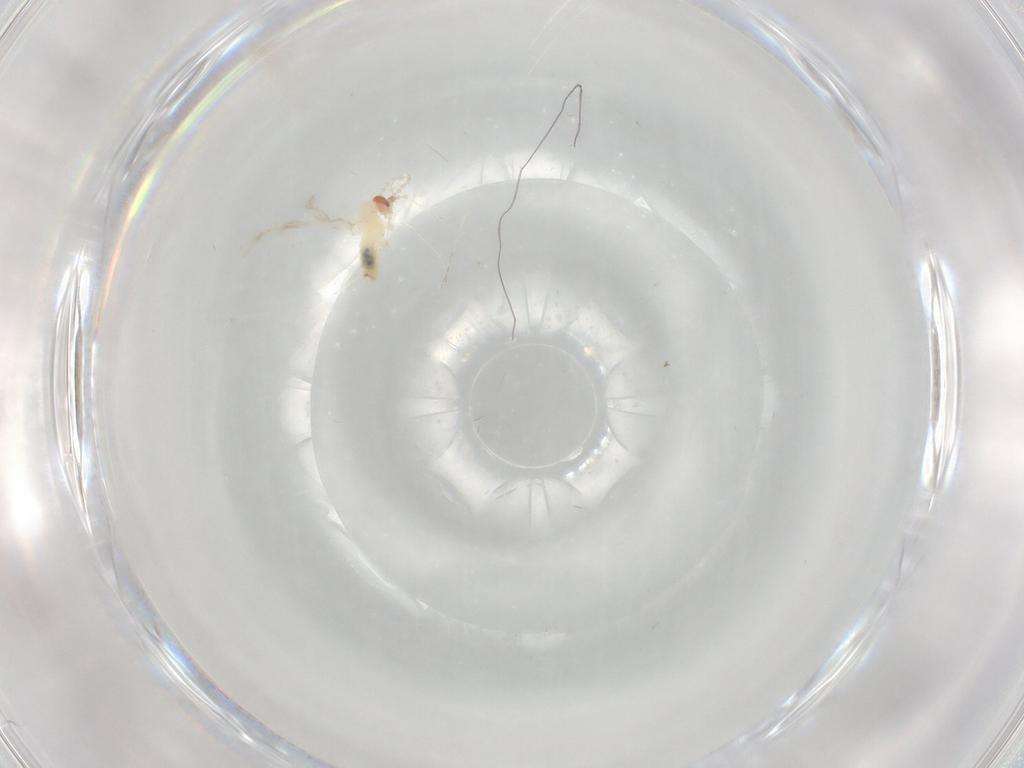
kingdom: Animalia
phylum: Arthropoda
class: Insecta
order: Diptera
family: Cecidomyiidae
